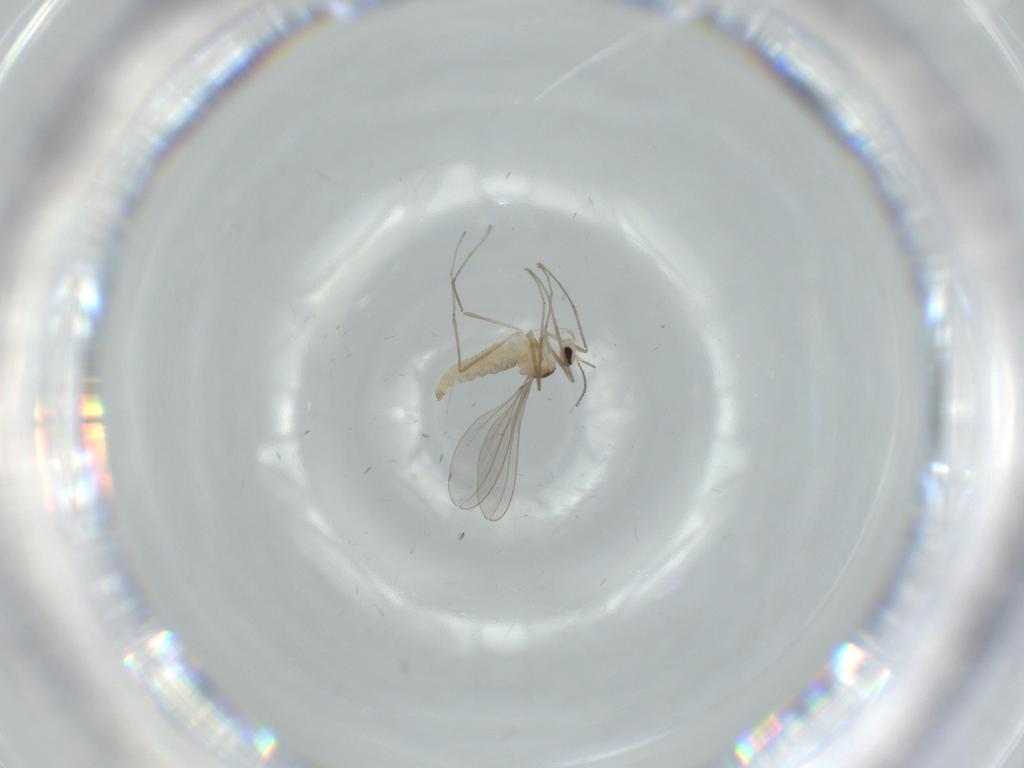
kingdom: Animalia
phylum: Arthropoda
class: Insecta
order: Diptera
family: Cecidomyiidae
